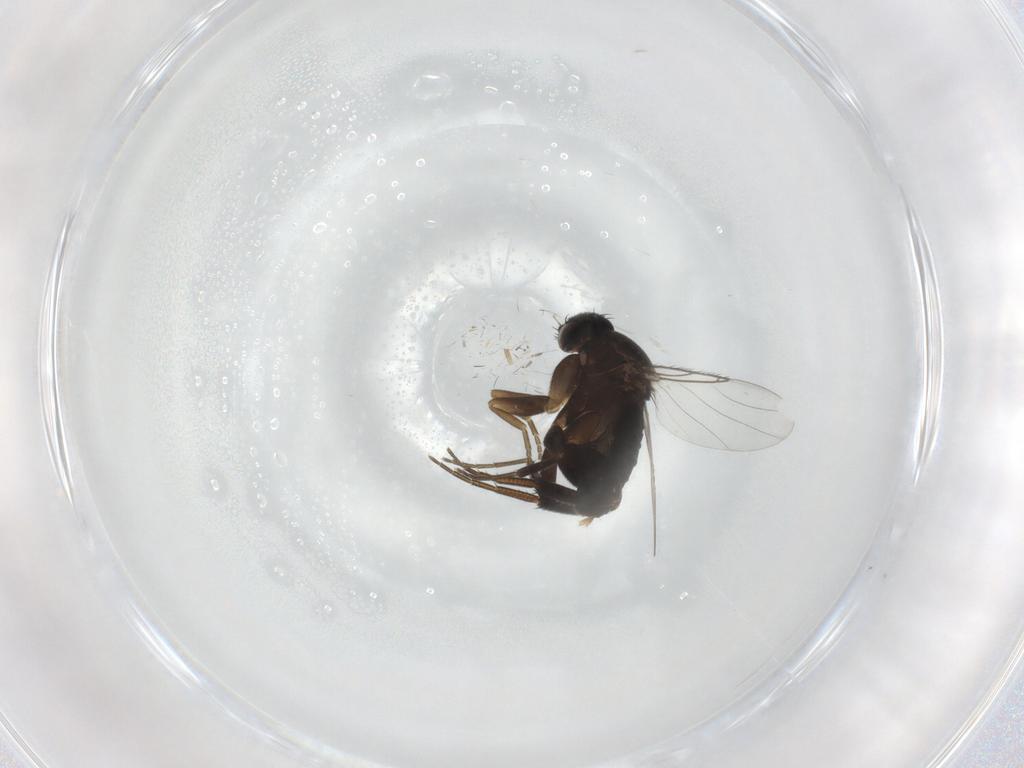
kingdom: Animalia
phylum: Arthropoda
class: Insecta
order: Diptera
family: Phoridae
